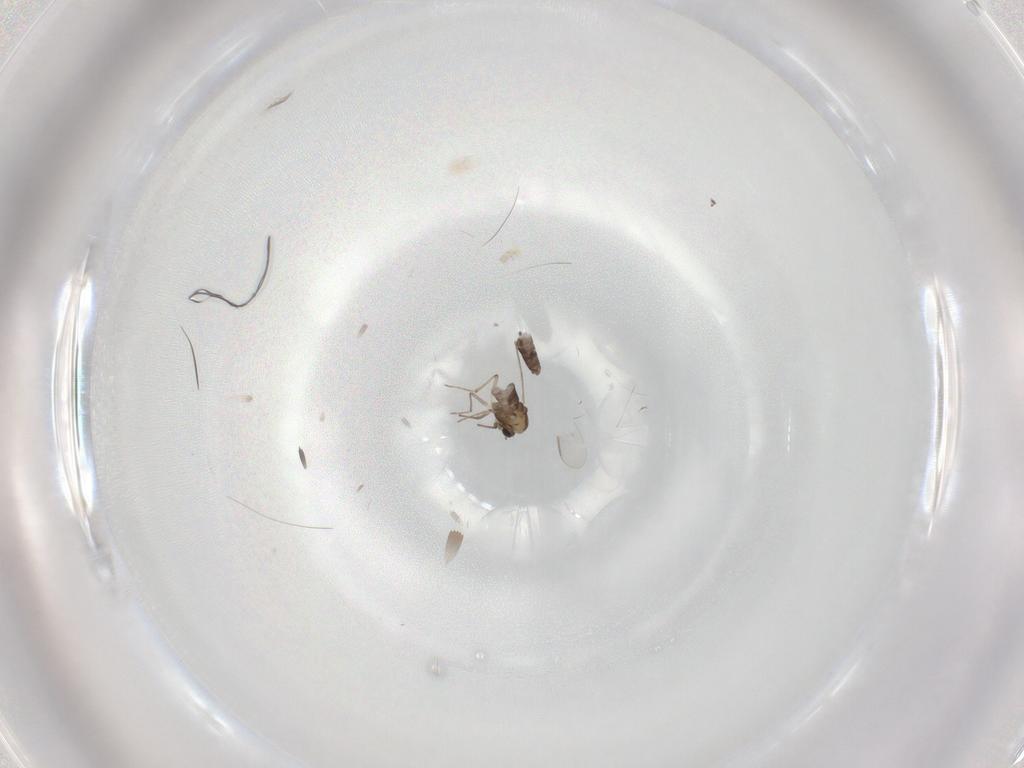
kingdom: Animalia
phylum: Arthropoda
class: Insecta
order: Diptera
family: Chironomidae
